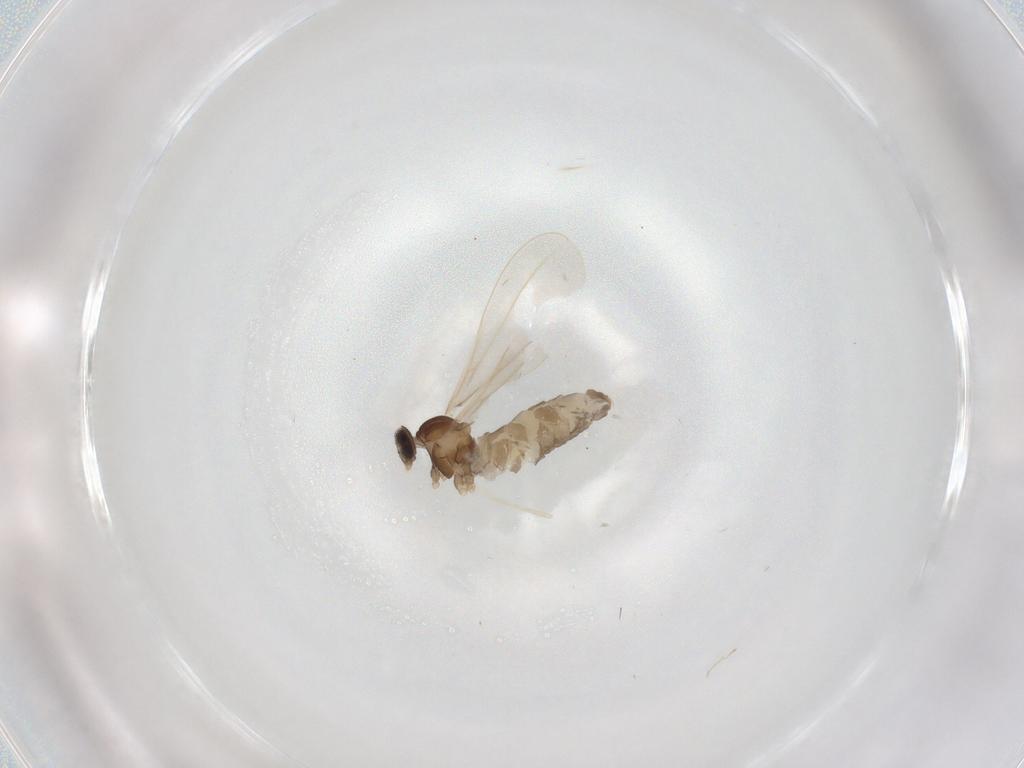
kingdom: Animalia
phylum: Arthropoda
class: Insecta
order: Diptera
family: Cecidomyiidae
